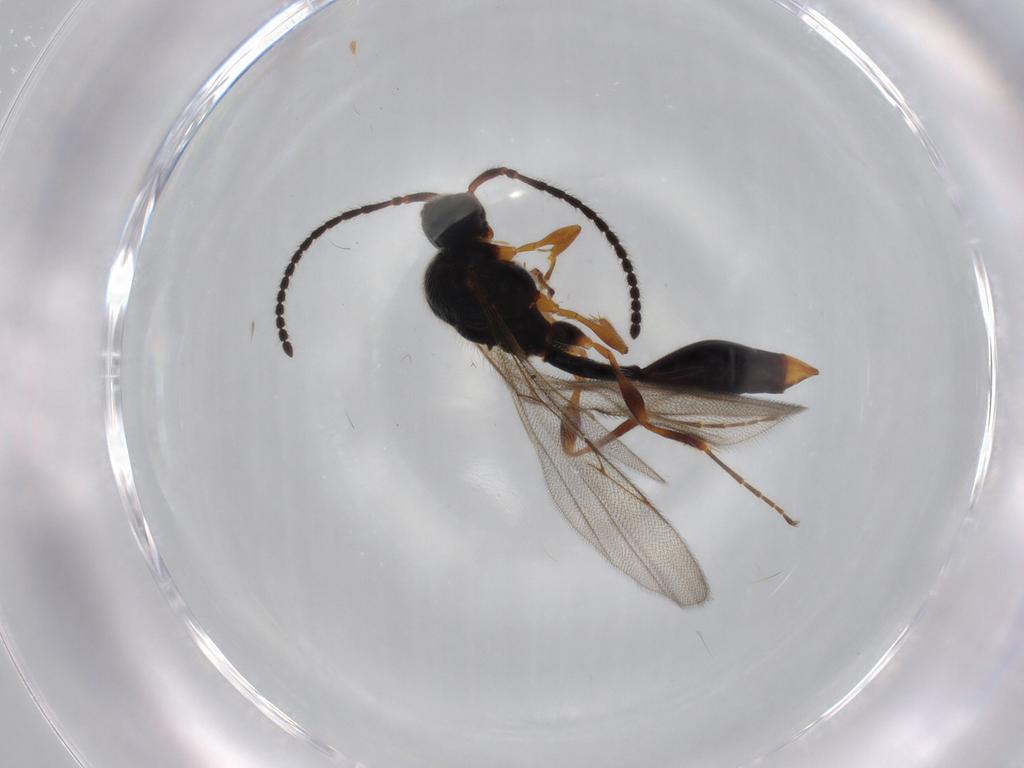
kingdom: Animalia
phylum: Arthropoda
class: Insecta
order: Hymenoptera
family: Diapriidae
